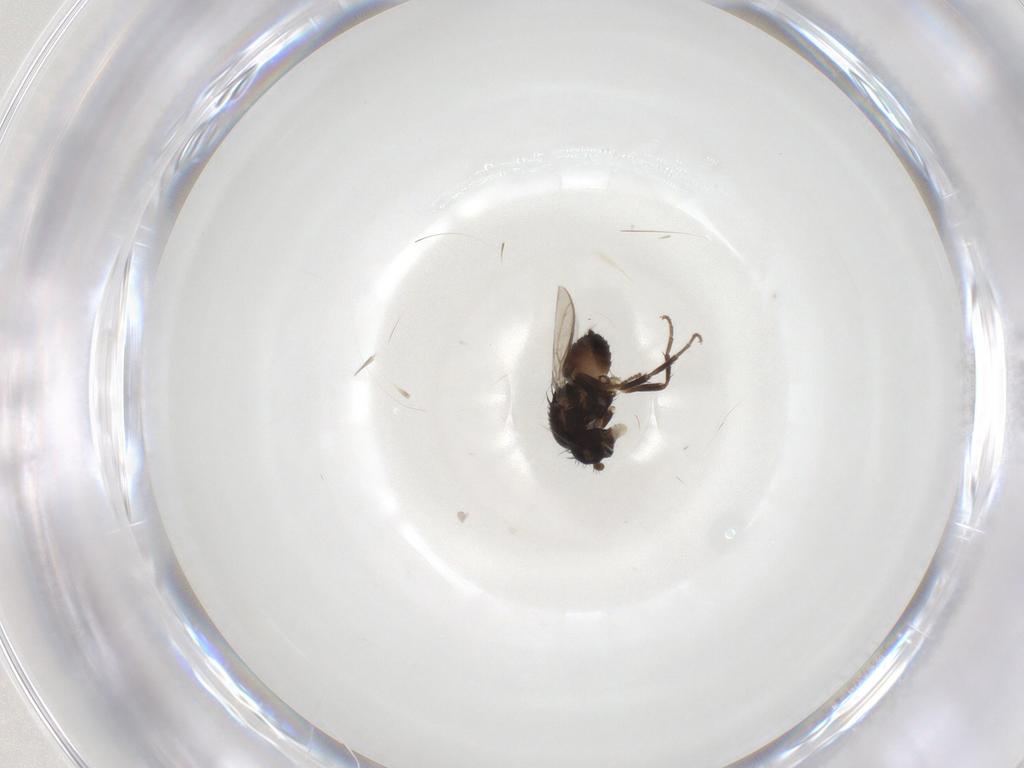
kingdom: Animalia
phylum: Arthropoda
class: Insecta
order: Diptera
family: Sphaeroceridae
